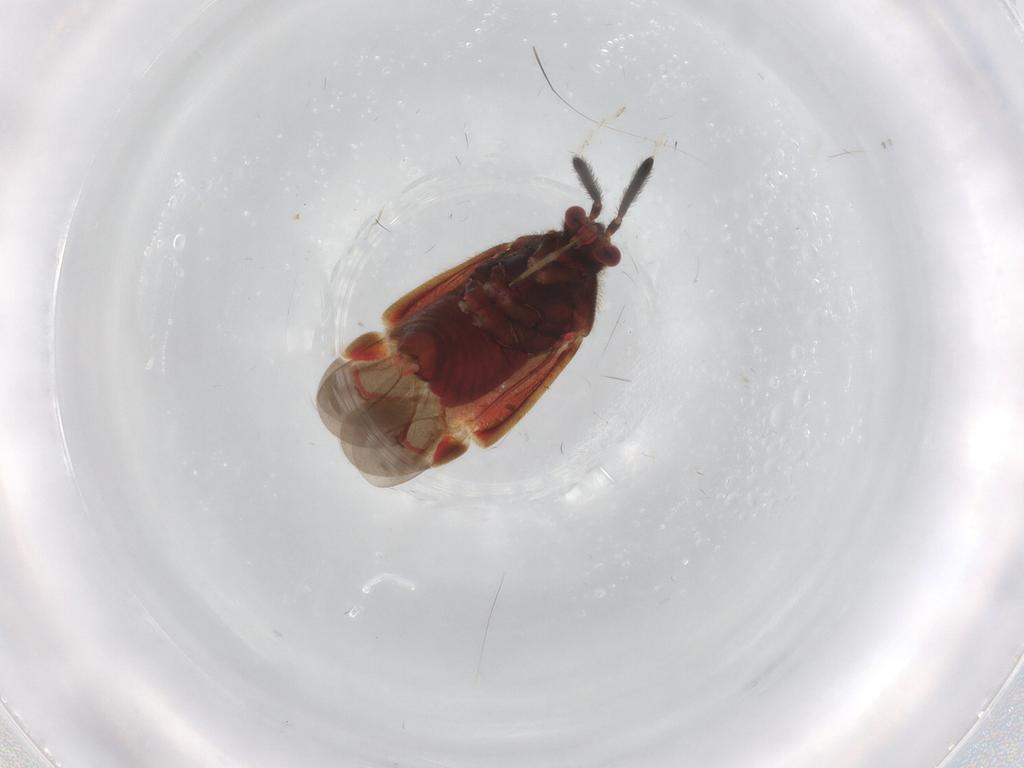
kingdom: Animalia
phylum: Arthropoda
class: Insecta
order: Hemiptera
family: Miridae
